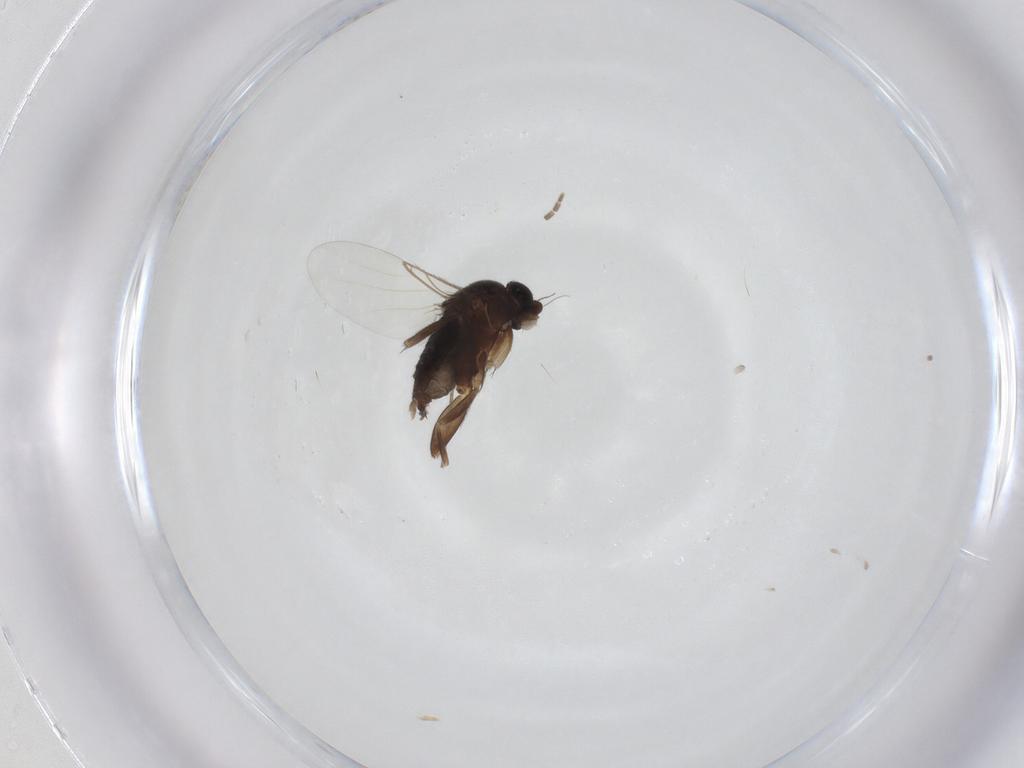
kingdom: Animalia
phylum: Arthropoda
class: Insecta
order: Diptera
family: Phoridae
